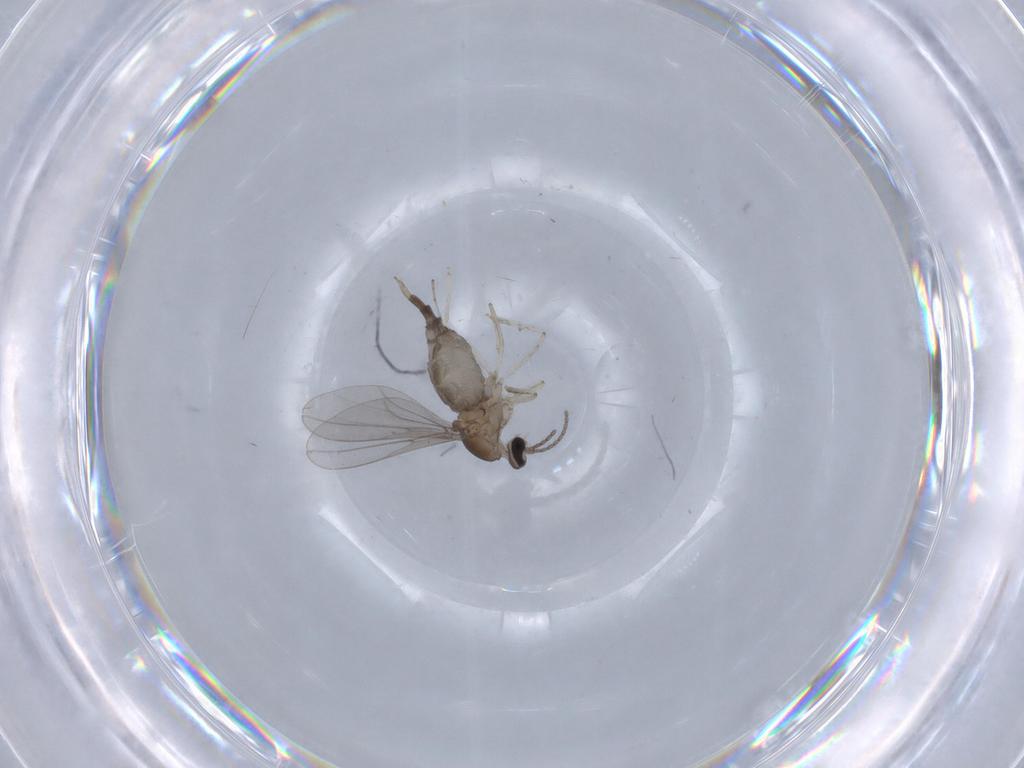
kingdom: Animalia
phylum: Arthropoda
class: Insecta
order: Diptera
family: Cecidomyiidae
